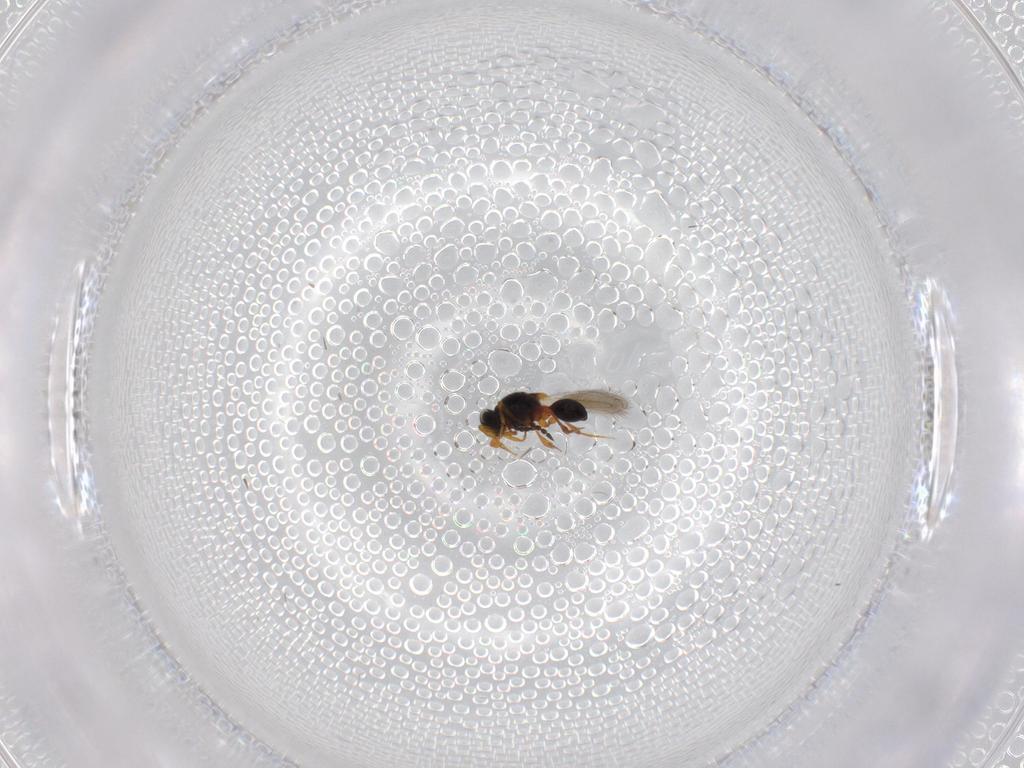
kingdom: Animalia
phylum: Arthropoda
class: Insecta
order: Hymenoptera
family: Platygastridae
